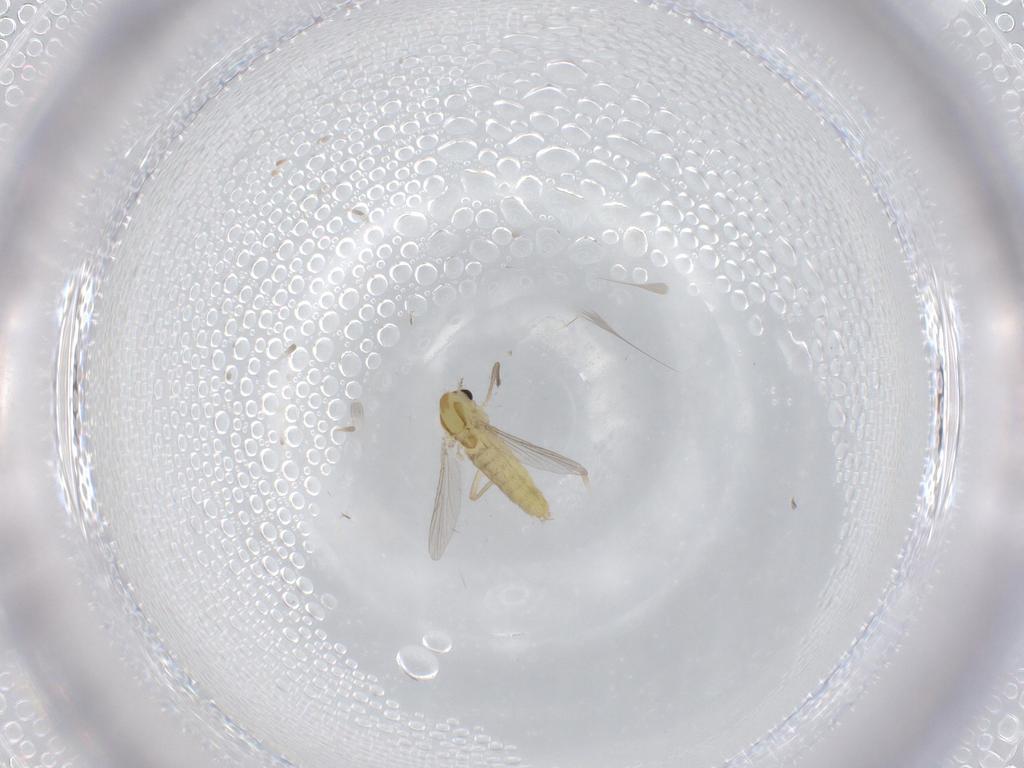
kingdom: Animalia
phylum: Arthropoda
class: Insecta
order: Diptera
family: Chironomidae
